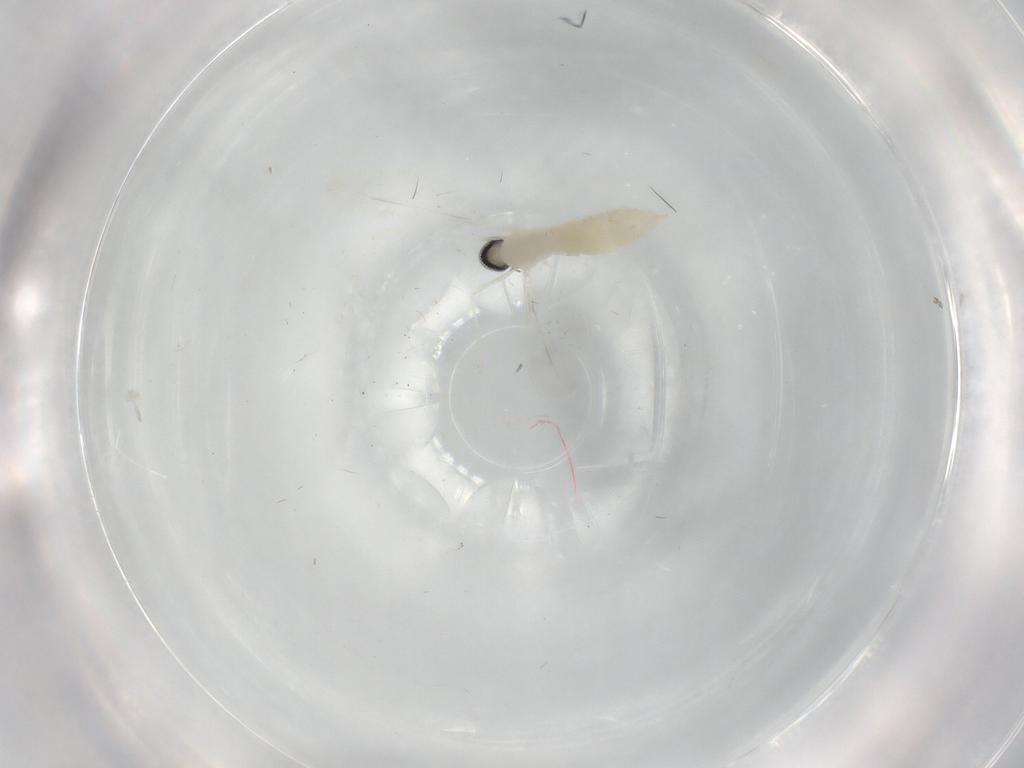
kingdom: Animalia
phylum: Arthropoda
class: Insecta
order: Diptera
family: Cecidomyiidae
